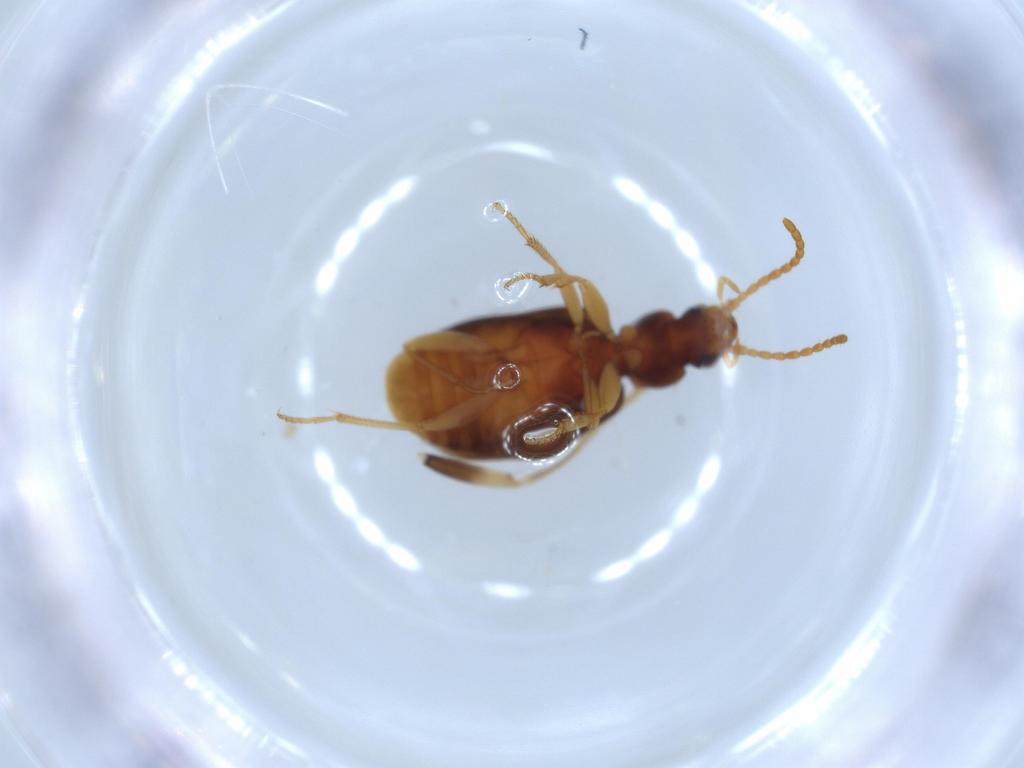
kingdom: Animalia
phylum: Arthropoda
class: Insecta
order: Coleoptera
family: Carabidae
